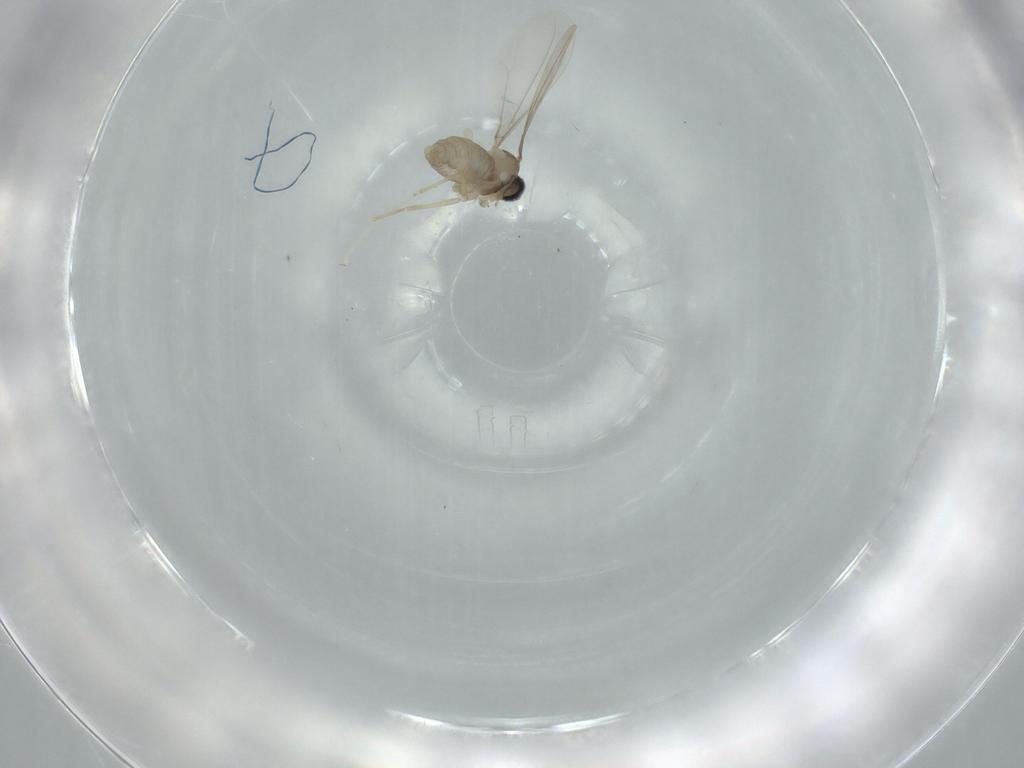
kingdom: Animalia
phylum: Arthropoda
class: Insecta
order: Diptera
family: Cecidomyiidae
